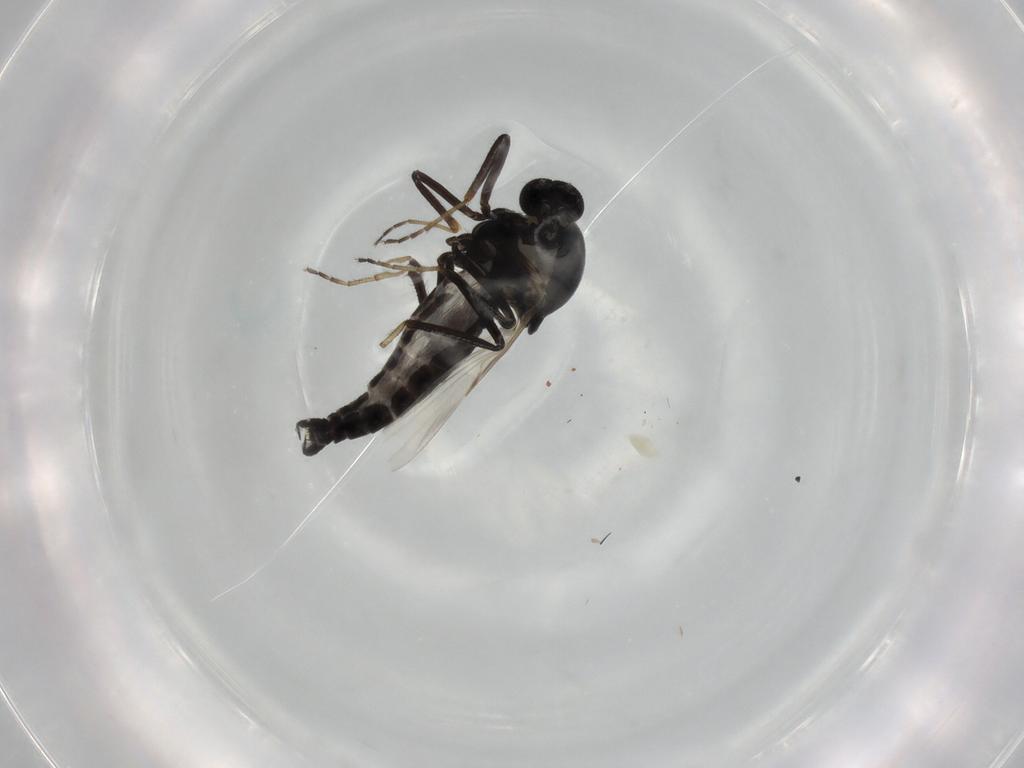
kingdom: Animalia
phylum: Arthropoda
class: Insecta
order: Diptera
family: Ceratopogonidae
